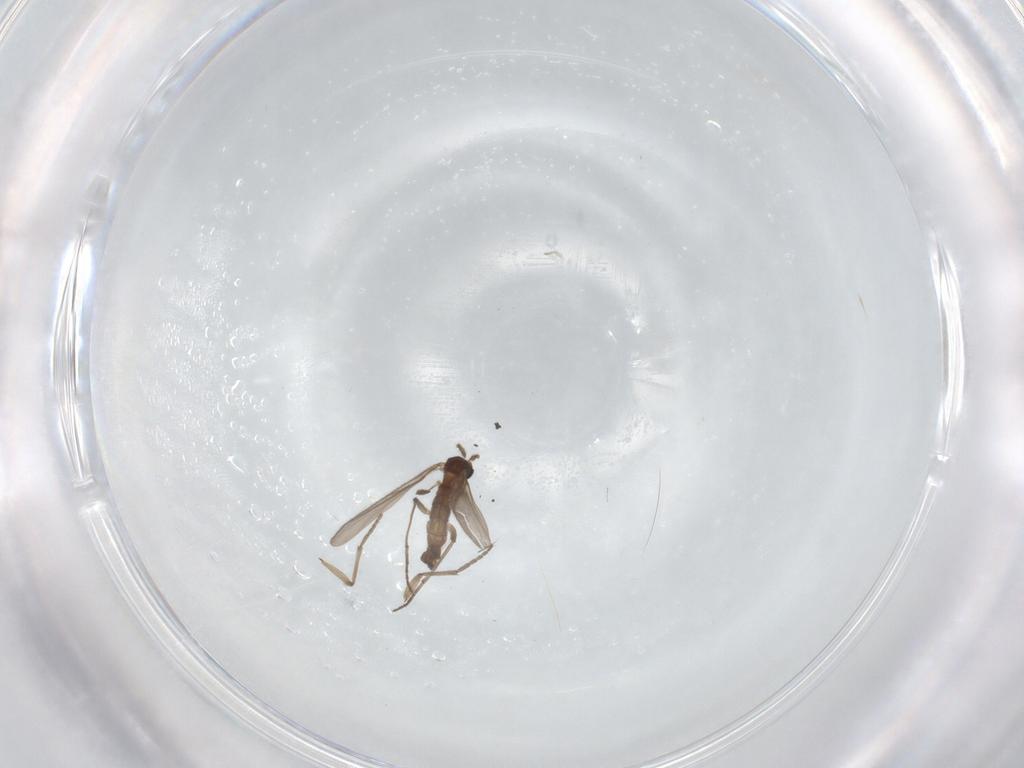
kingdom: Animalia
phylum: Arthropoda
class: Insecta
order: Diptera
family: Sciaridae
